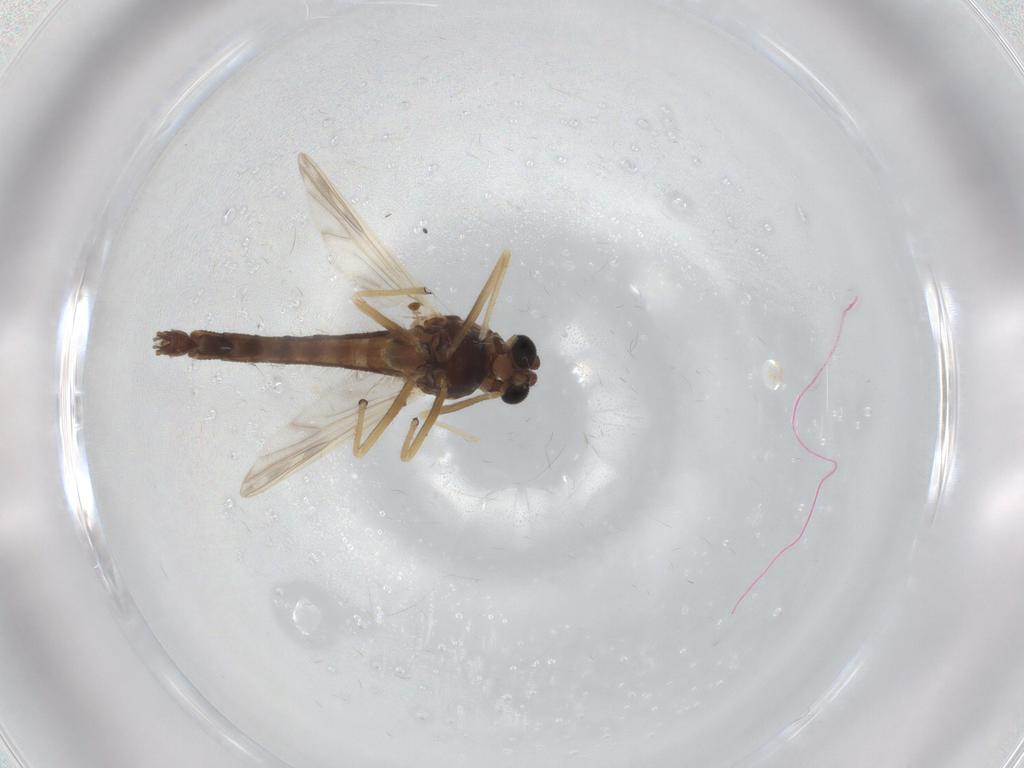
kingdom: Animalia
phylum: Arthropoda
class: Insecta
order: Diptera
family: Chironomidae
